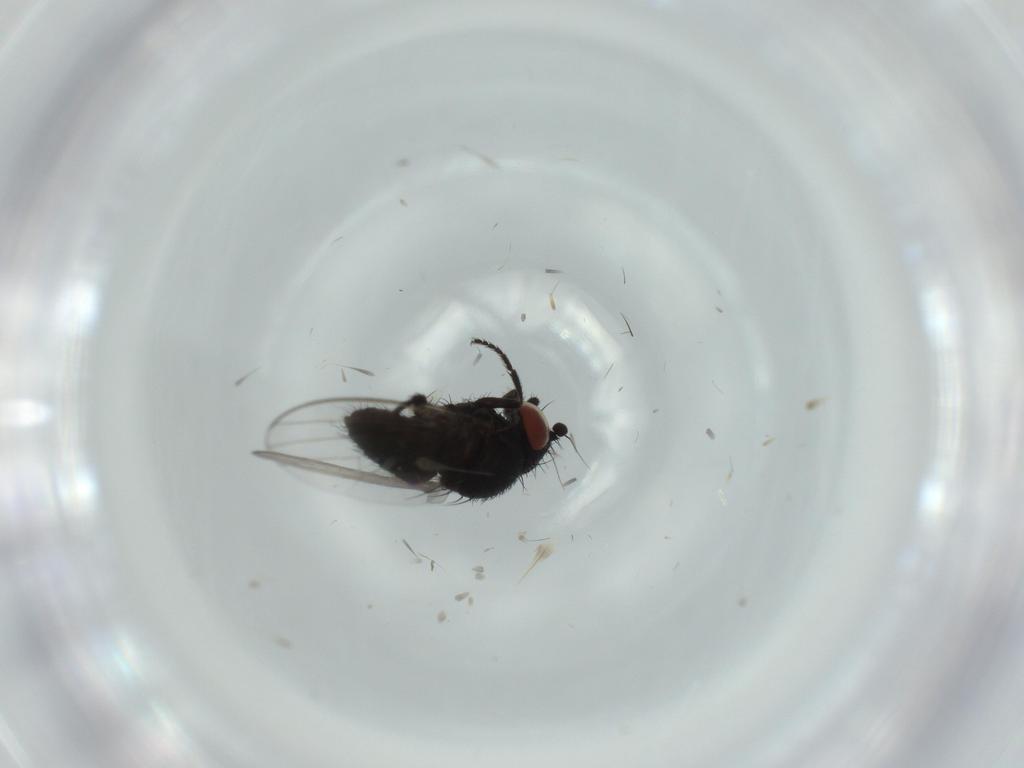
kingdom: Animalia
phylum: Arthropoda
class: Insecta
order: Diptera
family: Milichiidae
